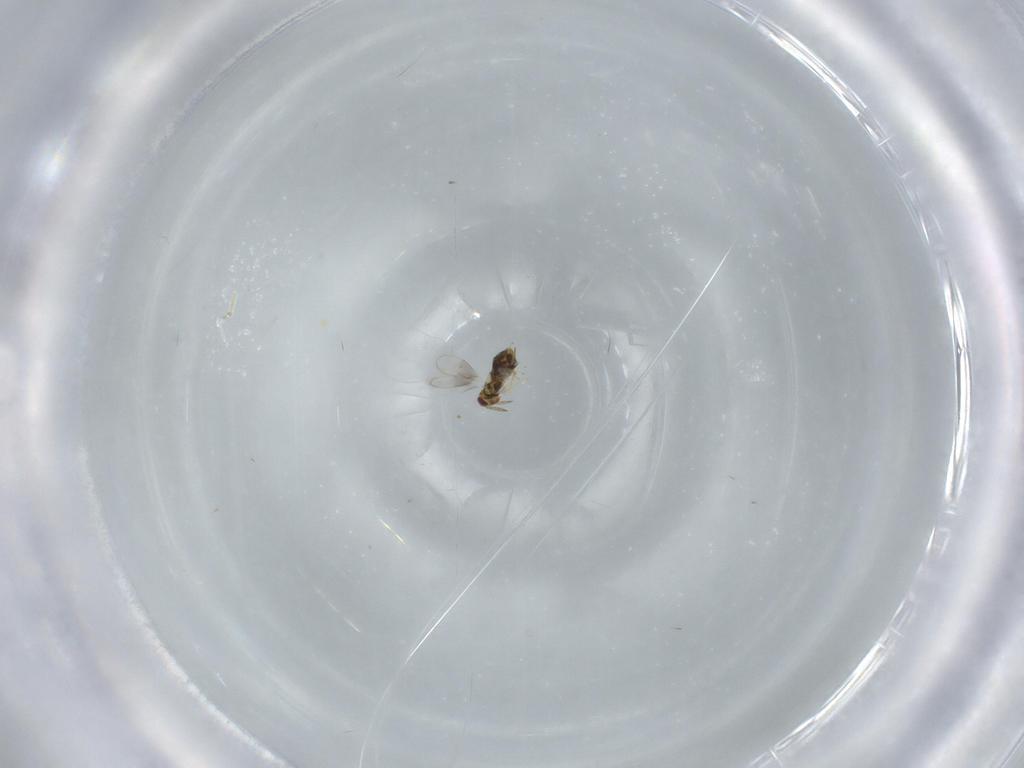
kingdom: Animalia
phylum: Arthropoda
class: Insecta
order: Hymenoptera
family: Aphelinidae
